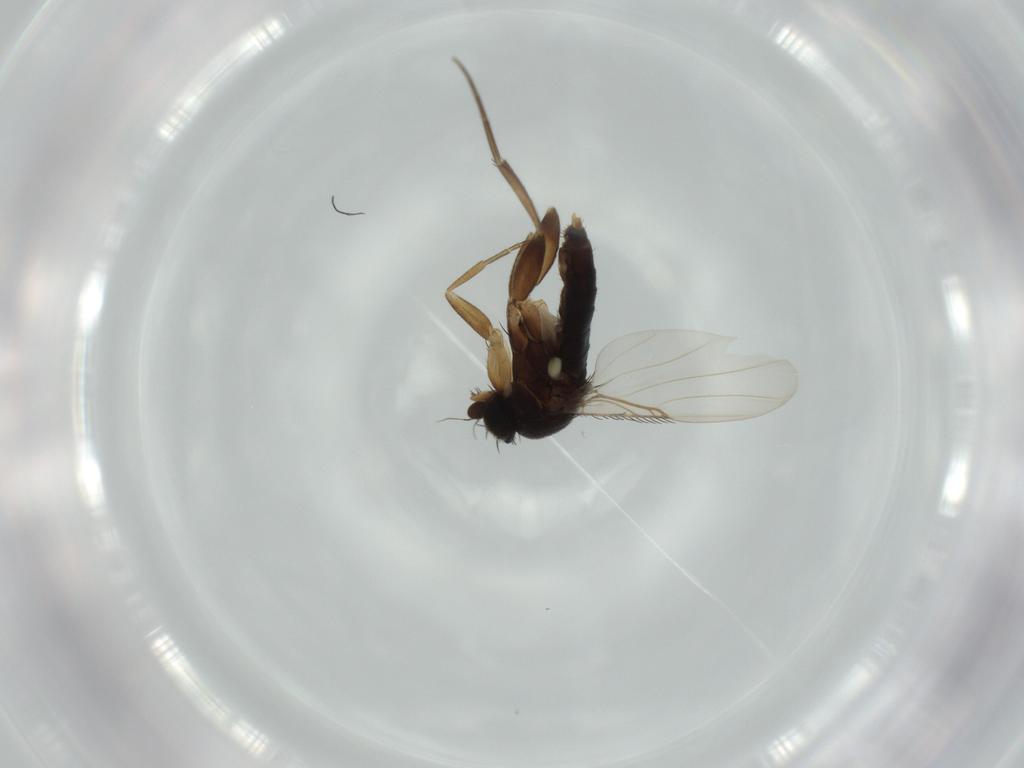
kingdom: Animalia
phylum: Arthropoda
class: Insecta
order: Diptera
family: Phoridae
